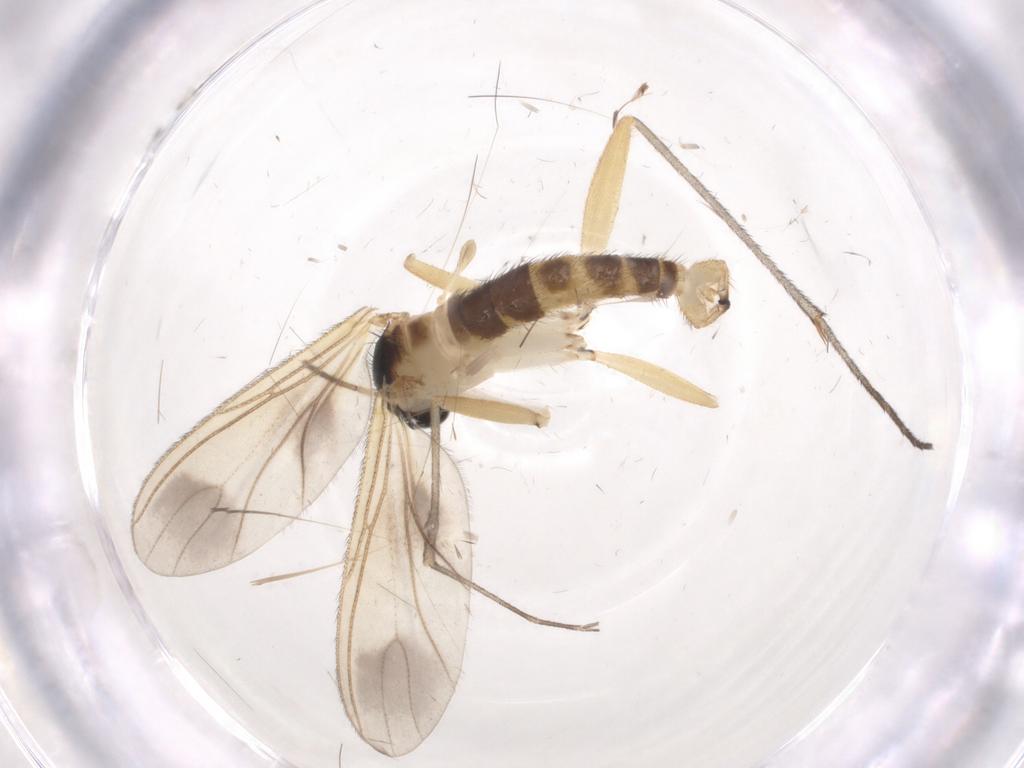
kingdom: Animalia
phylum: Arthropoda
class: Insecta
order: Diptera
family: Sciaridae
